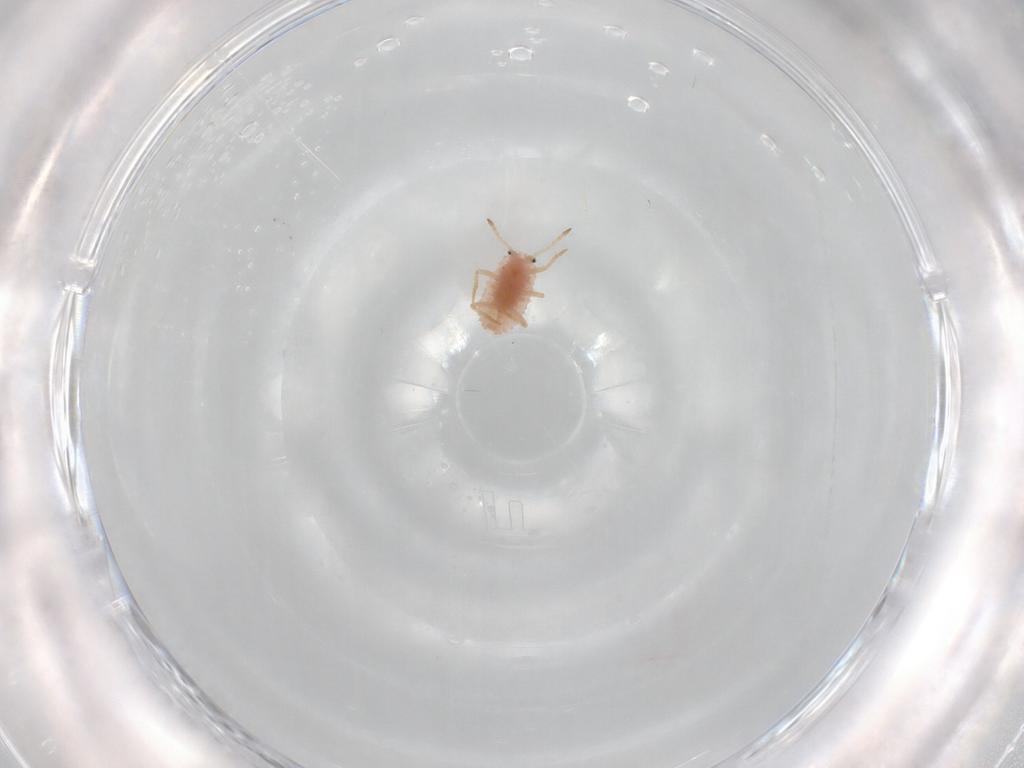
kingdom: Animalia
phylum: Arthropoda
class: Insecta
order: Hemiptera
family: Coccoidea_incertae_sedis
